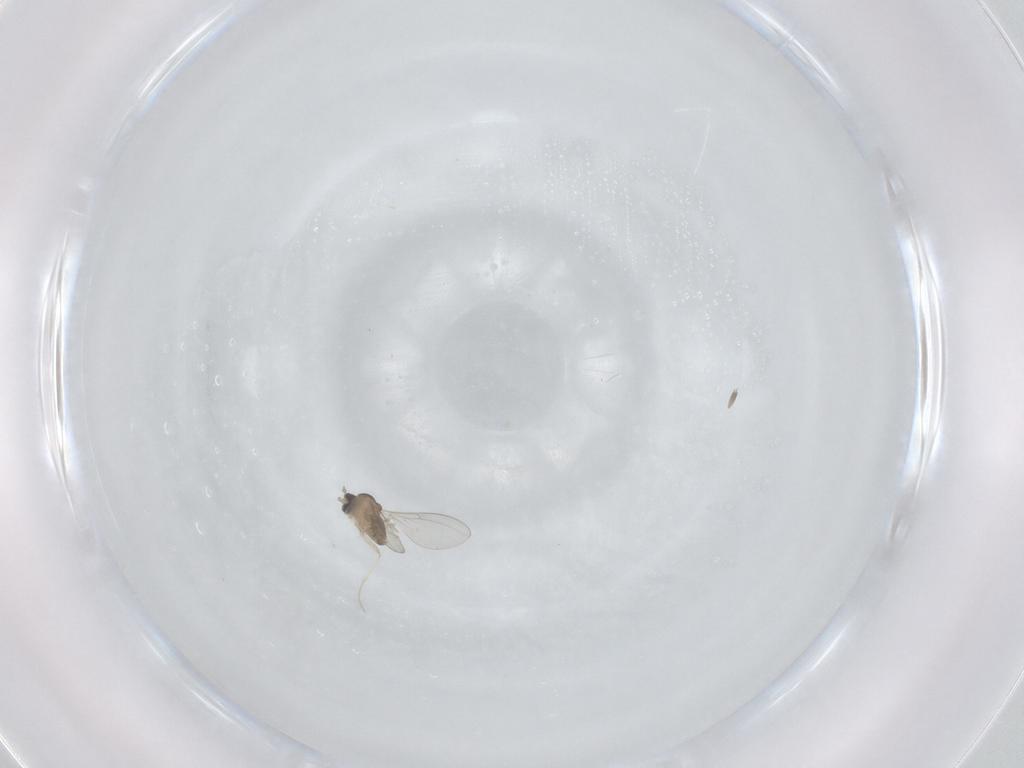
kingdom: Animalia
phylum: Arthropoda
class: Insecta
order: Diptera
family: Cecidomyiidae
